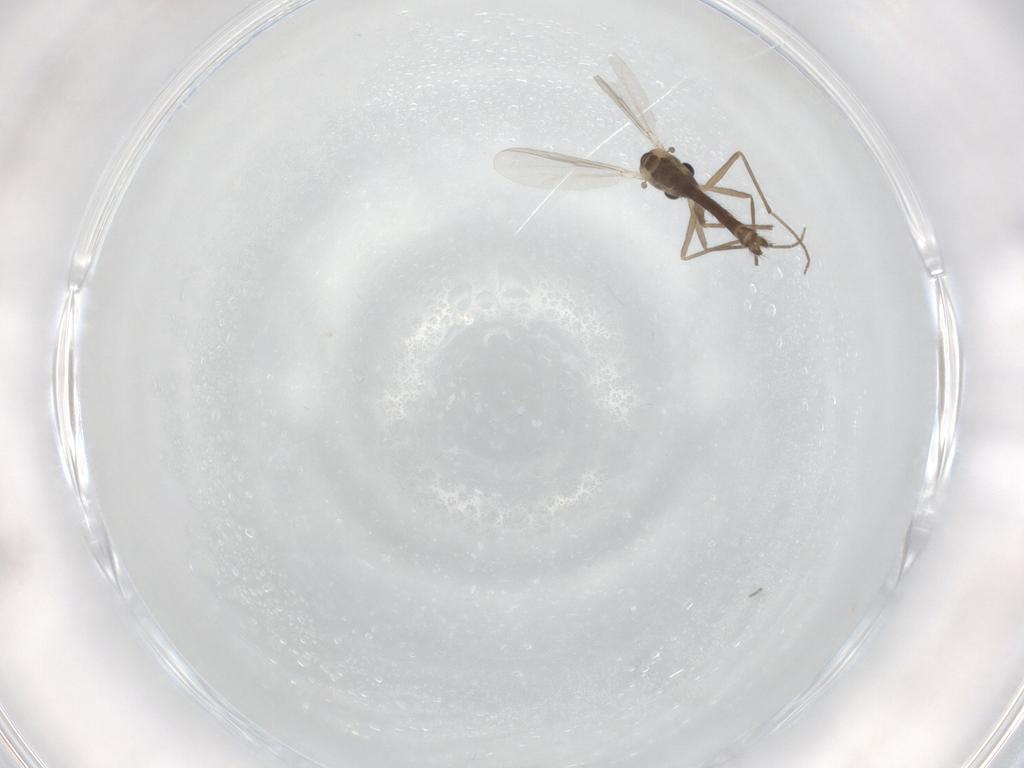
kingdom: Animalia
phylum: Arthropoda
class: Insecta
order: Diptera
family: Chironomidae
